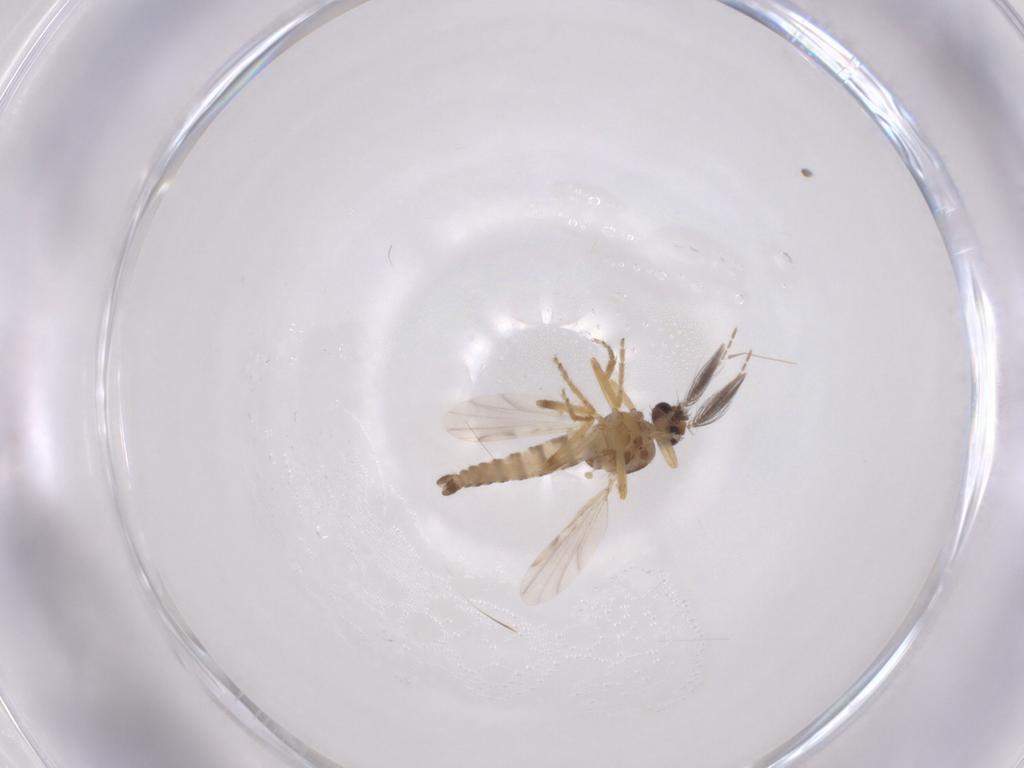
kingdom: Animalia
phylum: Arthropoda
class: Insecta
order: Diptera
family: Ceratopogonidae
